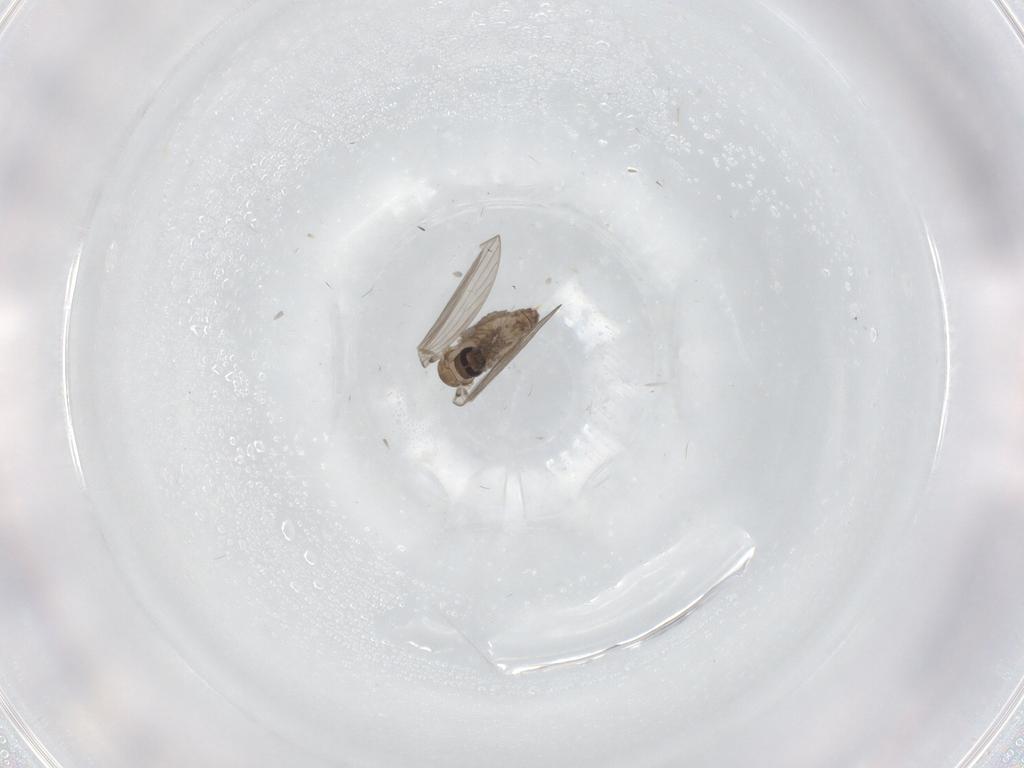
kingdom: Animalia
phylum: Arthropoda
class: Insecta
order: Diptera
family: Psychodidae
